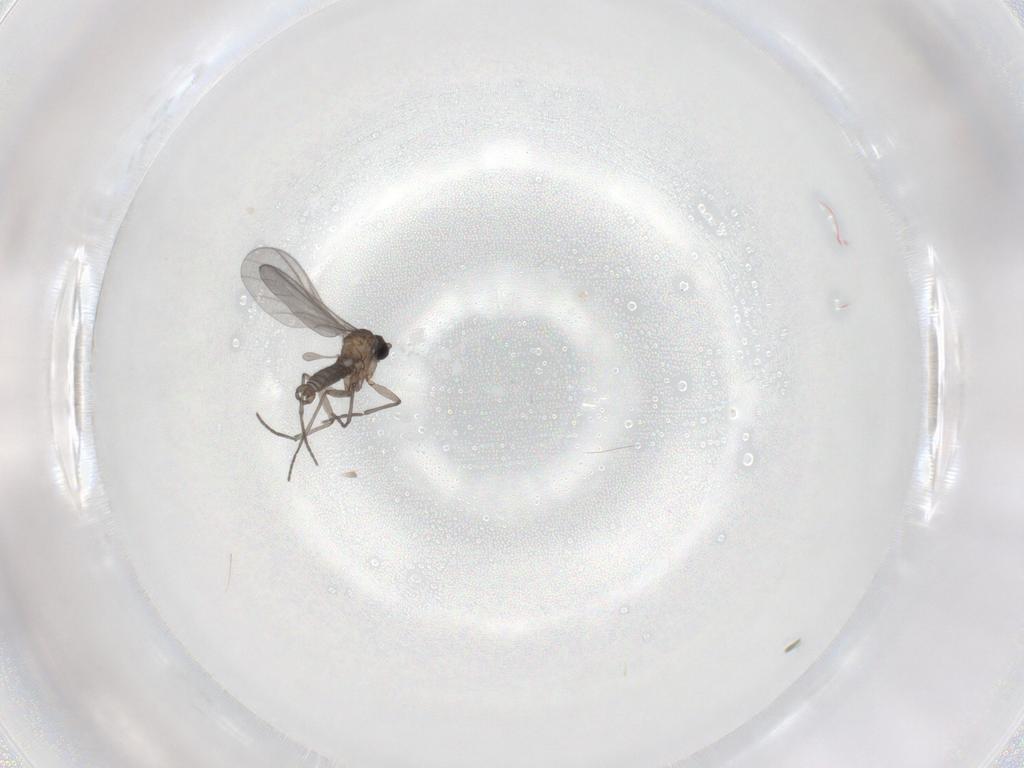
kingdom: Animalia
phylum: Arthropoda
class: Insecta
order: Diptera
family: Sciaridae
